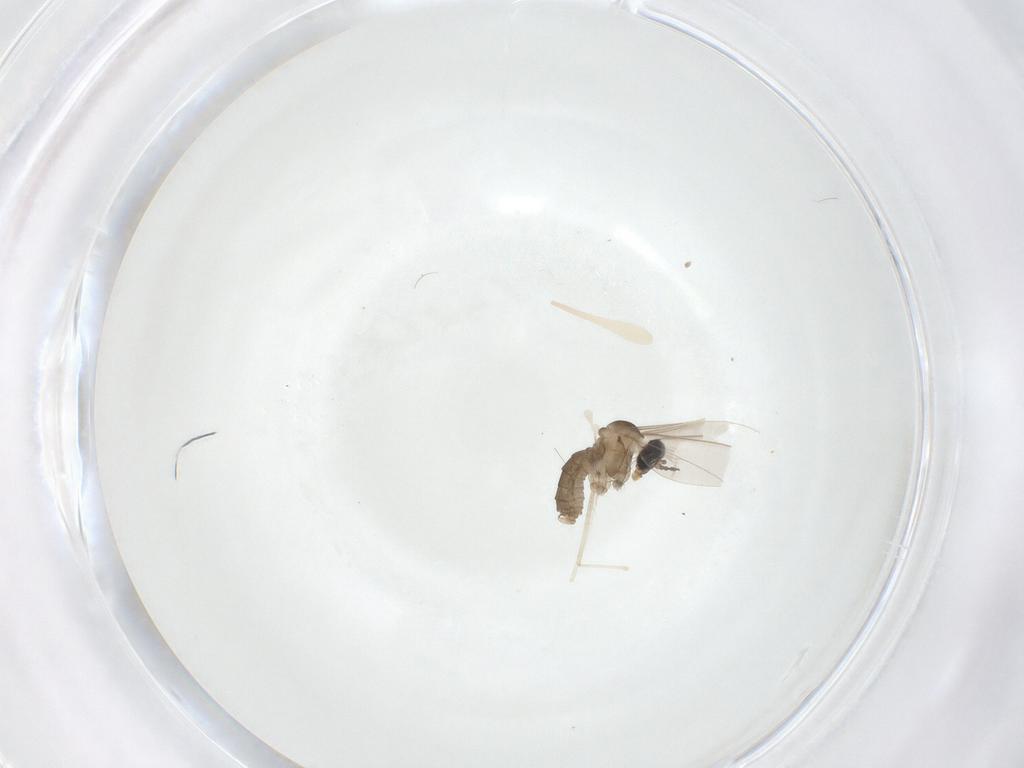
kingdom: Animalia
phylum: Arthropoda
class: Insecta
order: Diptera
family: Cecidomyiidae
